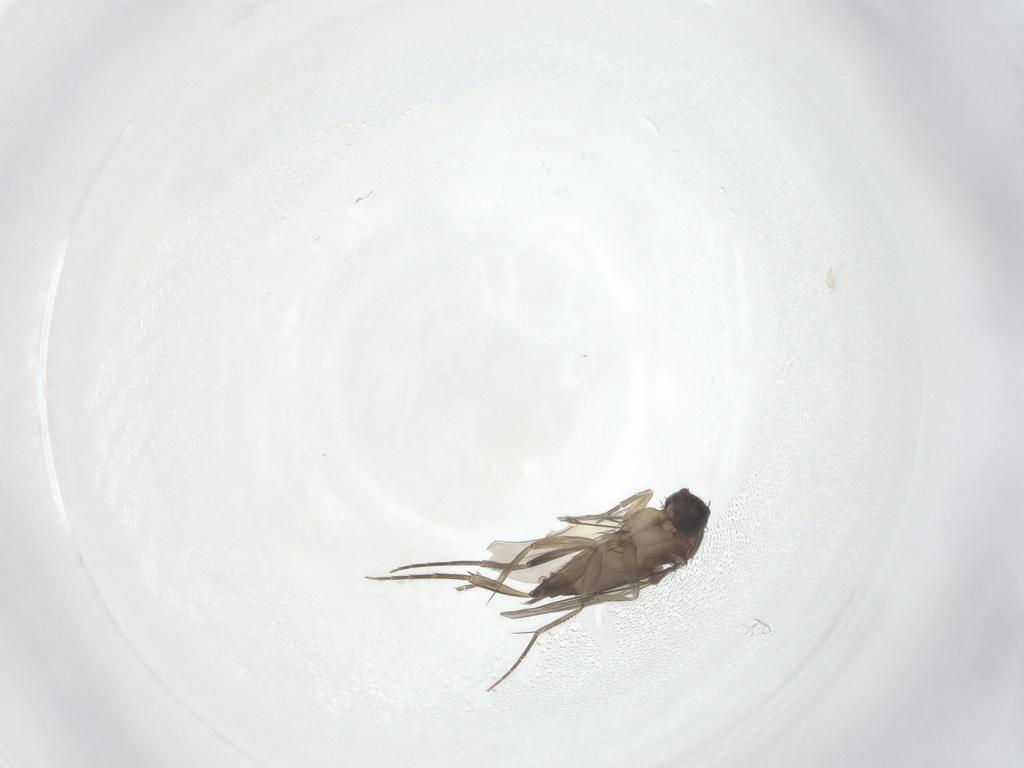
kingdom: Animalia
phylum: Arthropoda
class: Insecta
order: Diptera
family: Phoridae
